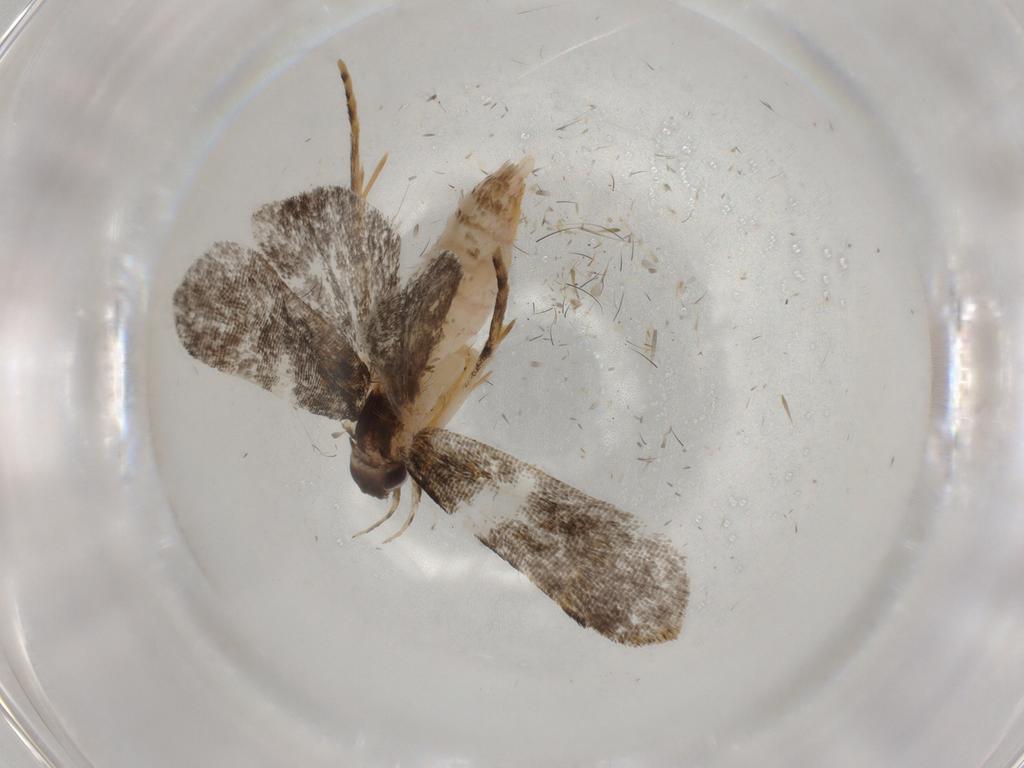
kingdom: Animalia
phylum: Arthropoda
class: Insecta
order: Lepidoptera
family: Cosmopterigidae
